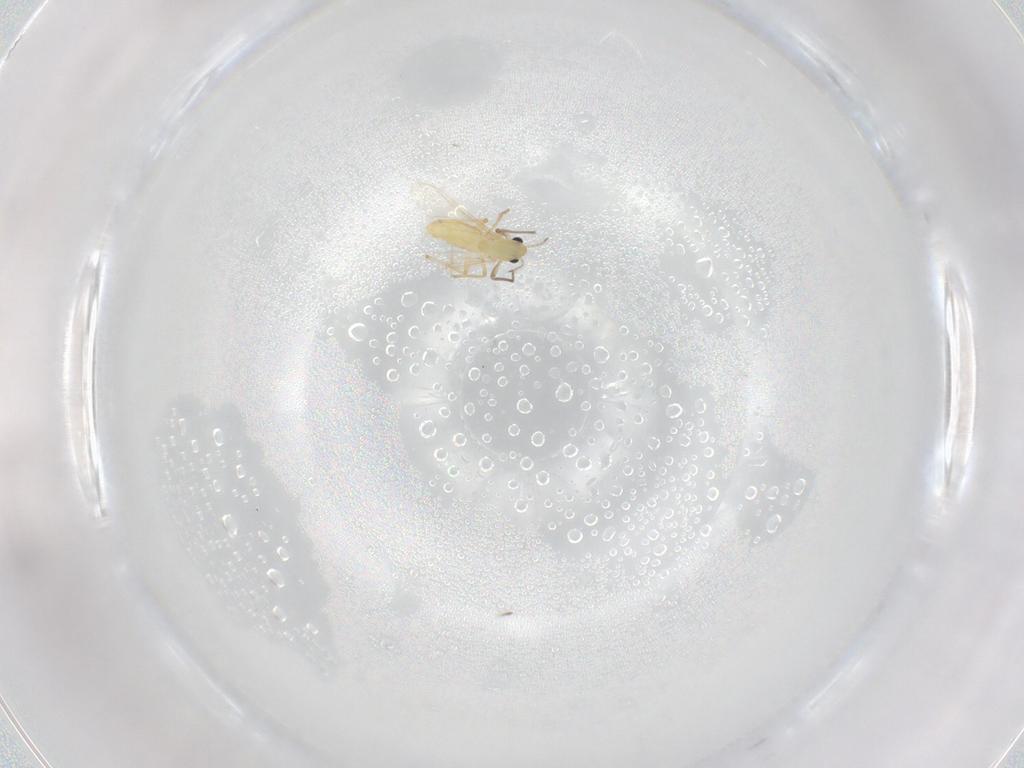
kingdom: Animalia
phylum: Arthropoda
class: Insecta
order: Diptera
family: Chironomidae
